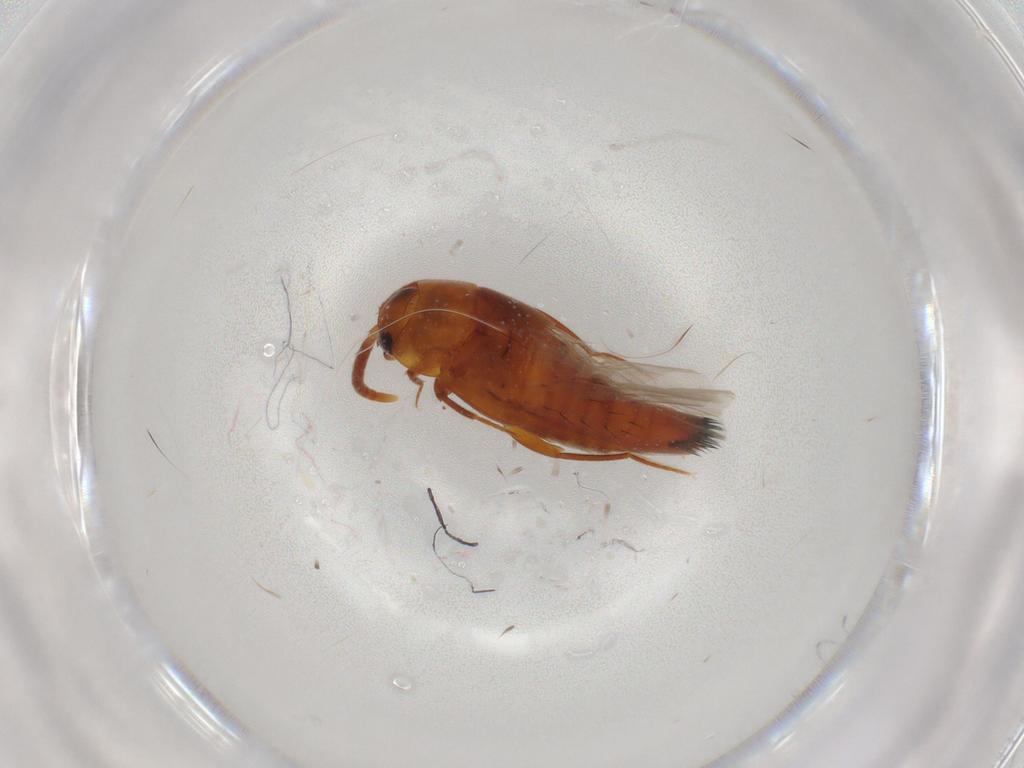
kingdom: Animalia
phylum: Arthropoda
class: Insecta
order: Coleoptera
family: Staphylinidae
